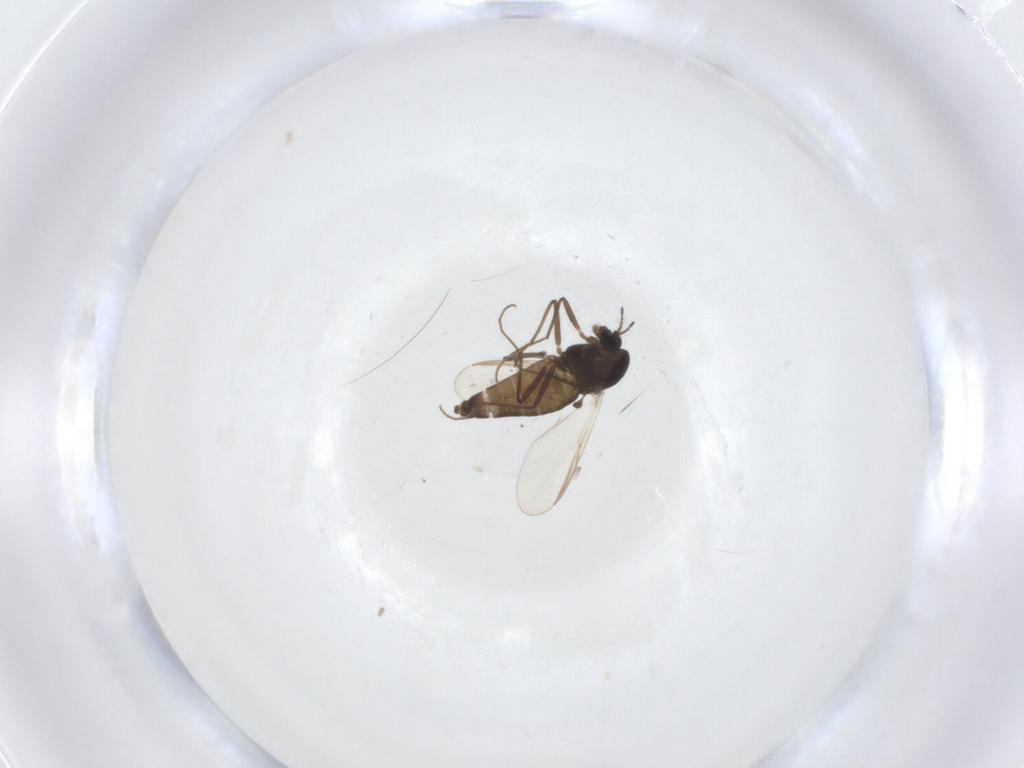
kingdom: Animalia
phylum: Arthropoda
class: Insecta
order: Diptera
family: Chironomidae
